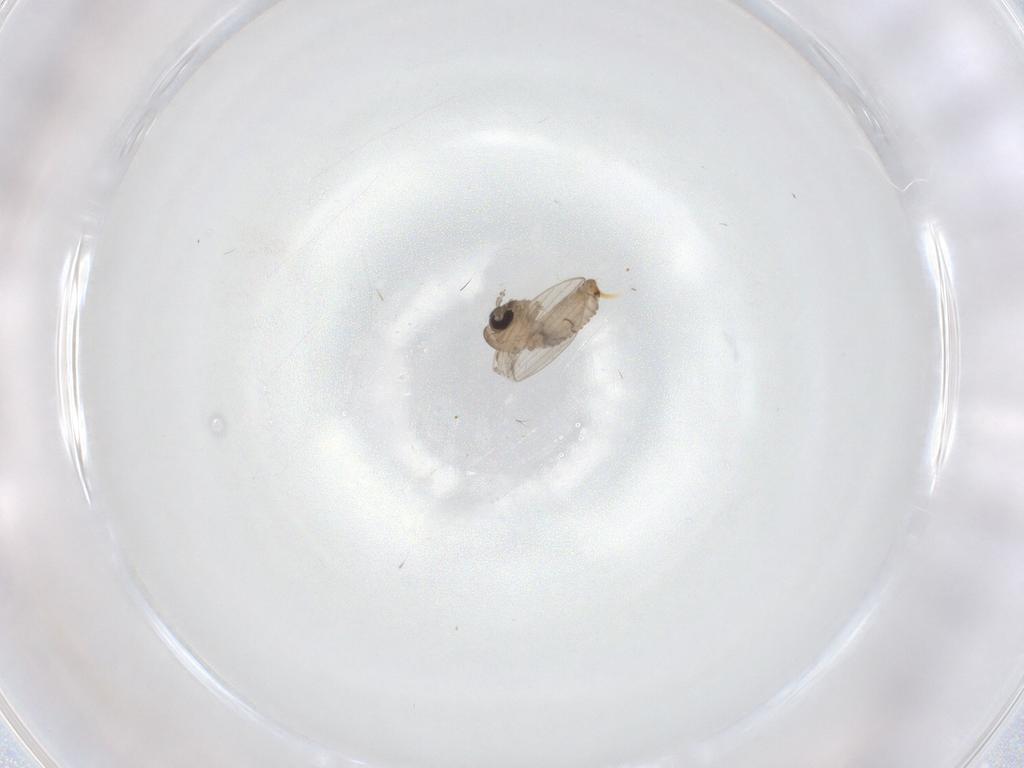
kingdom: Animalia
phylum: Arthropoda
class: Insecta
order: Diptera
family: Psychodidae
